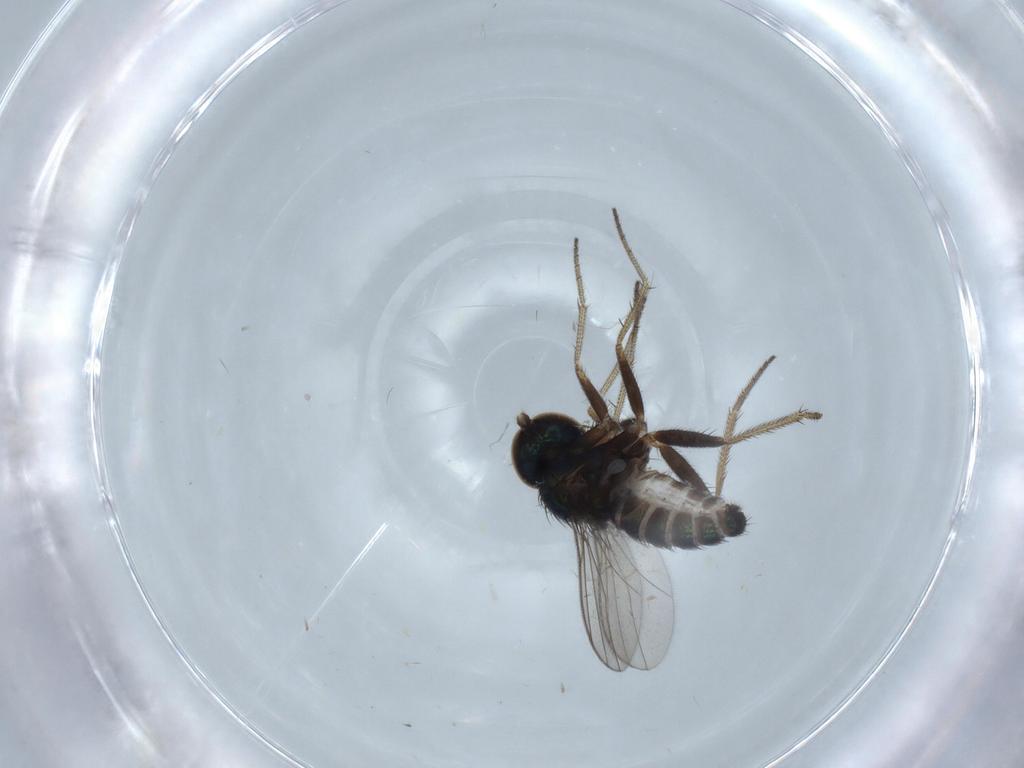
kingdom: Animalia
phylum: Arthropoda
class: Insecta
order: Diptera
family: Dolichopodidae
